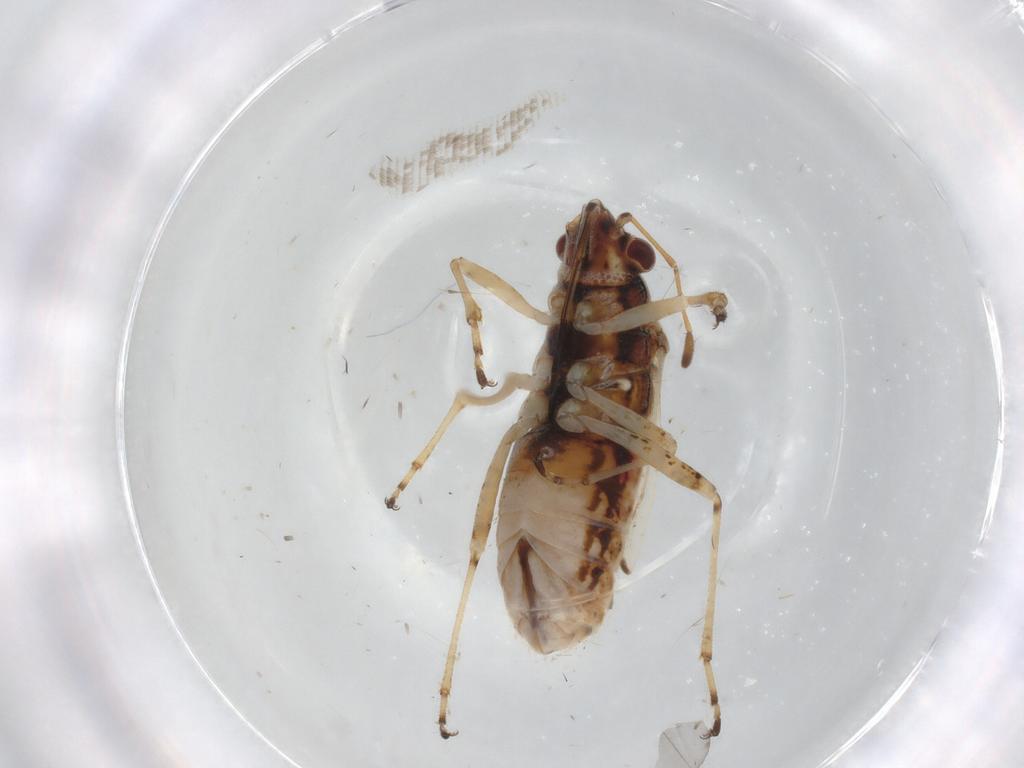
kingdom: Animalia
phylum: Arthropoda
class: Insecta
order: Hemiptera
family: Lygaeidae
